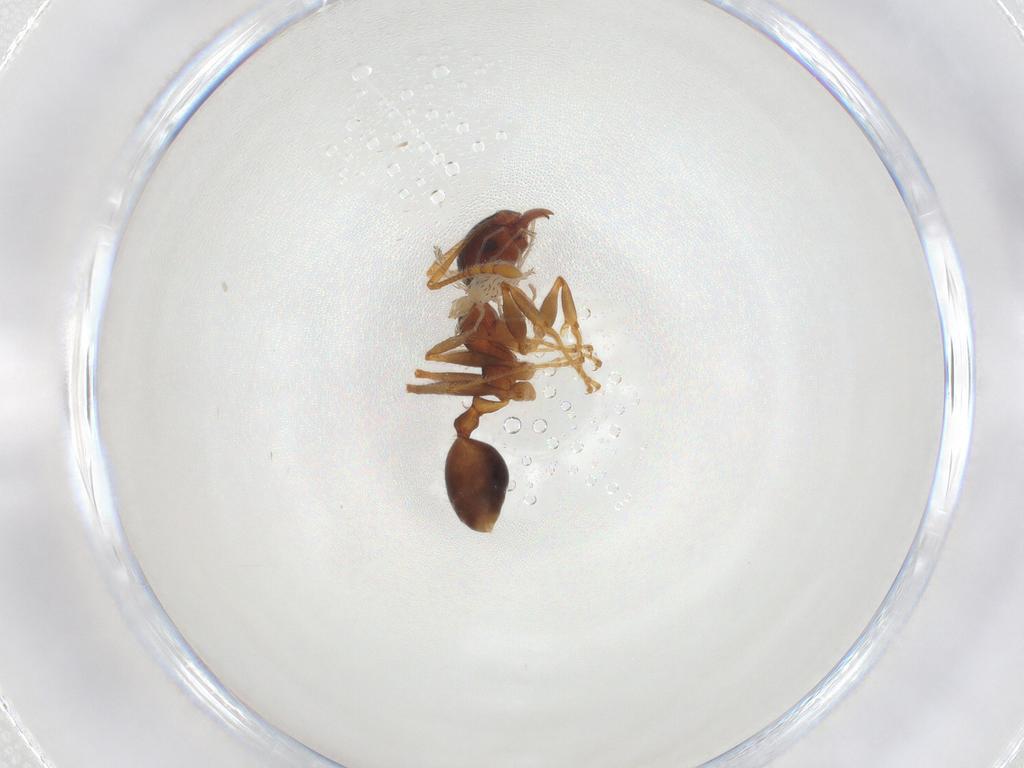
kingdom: Animalia
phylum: Arthropoda
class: Insecta
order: Hymenoptera
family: Formicidae
